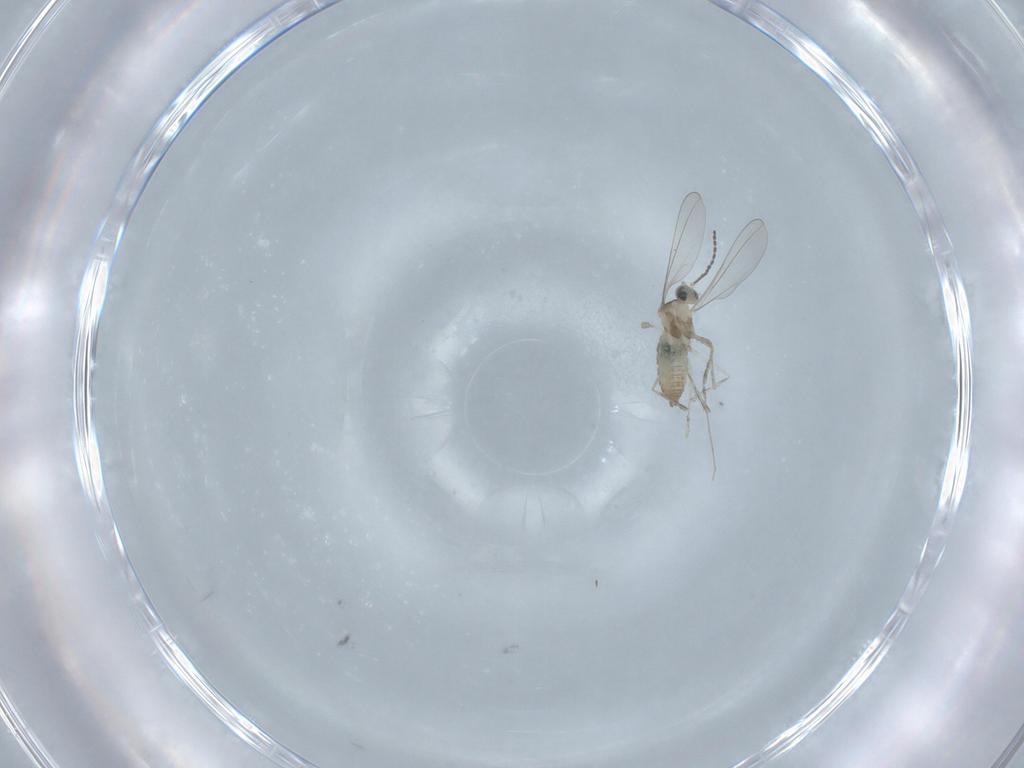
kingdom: Animalia
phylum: Arthropoda
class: Insecta
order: Diptera
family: Cecidomyiidae
